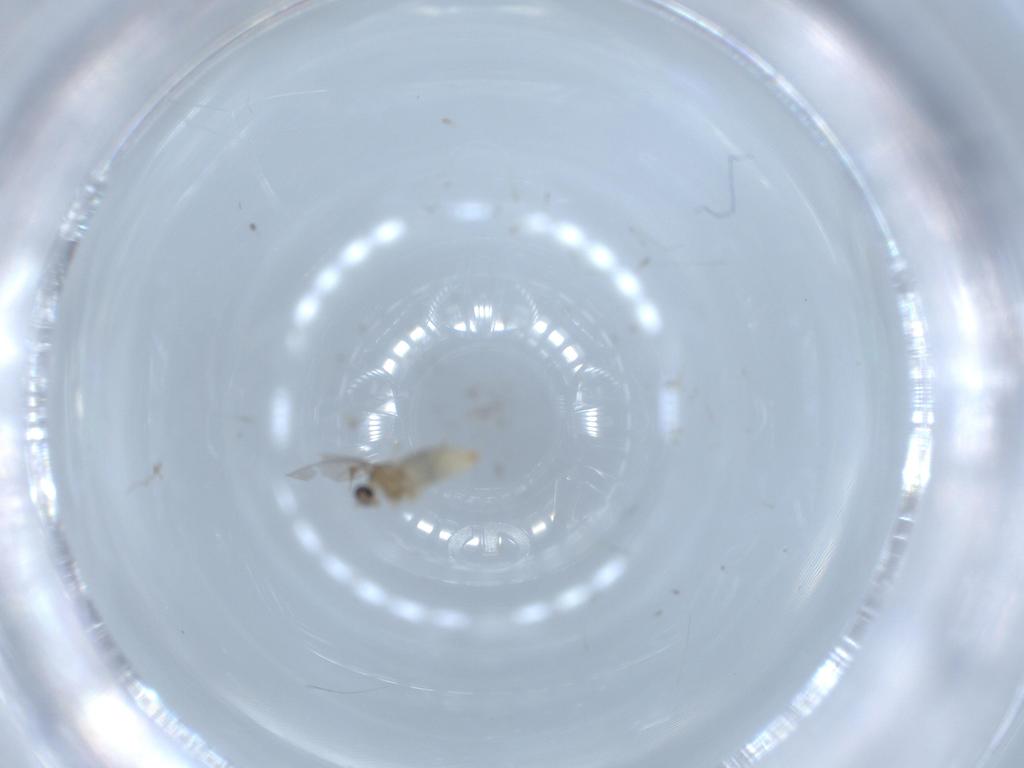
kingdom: Animalia
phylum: Arthropoda
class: Insecta
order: Diptera
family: Cecidomyiidae
